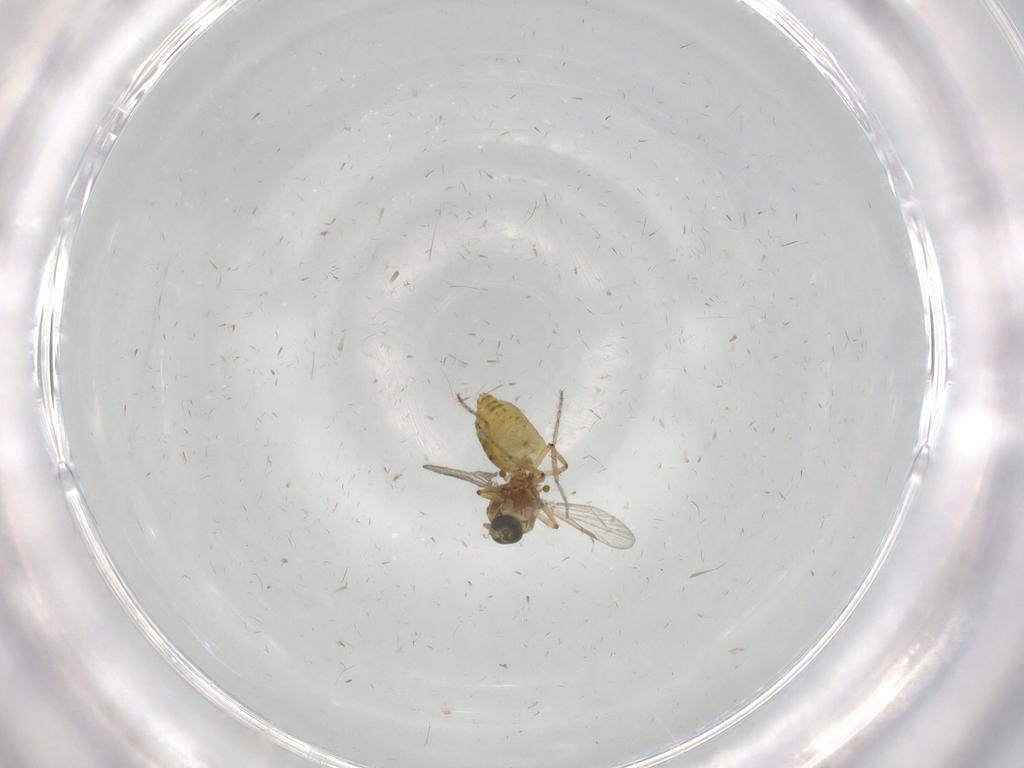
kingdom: Animalia
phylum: Arthropoda
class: Insecta
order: Diptera
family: Ceratopogonidae
